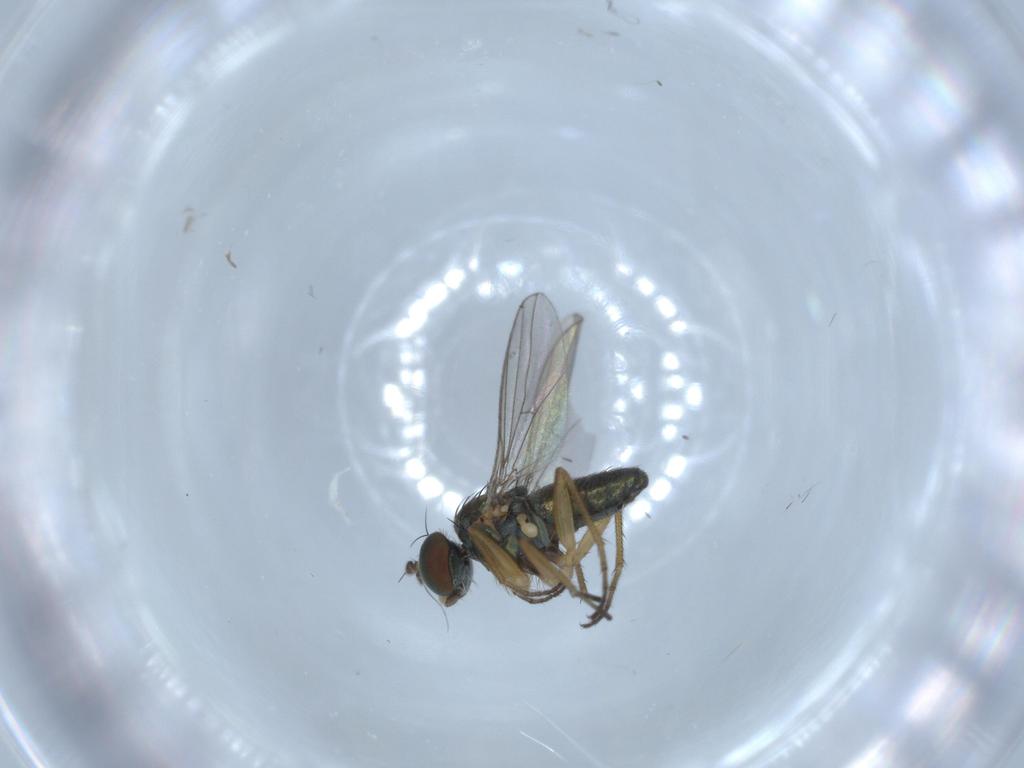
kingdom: Animalia
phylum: Arthropoda
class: Insecta
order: Diptera
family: Dolichopodidae
